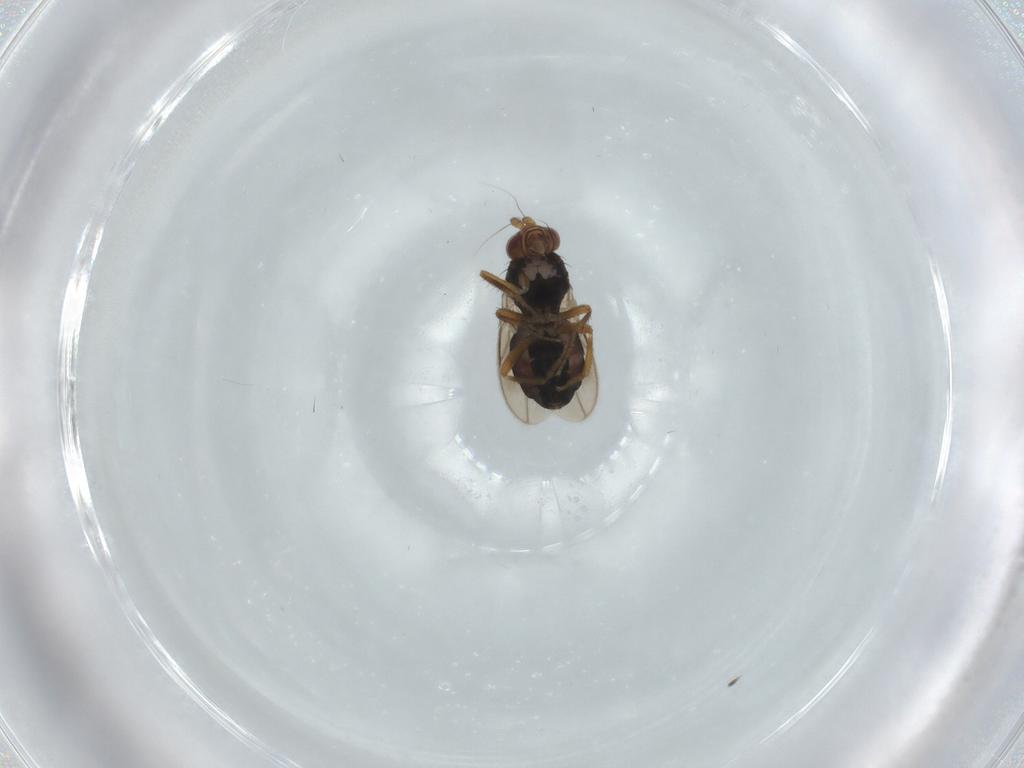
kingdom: Animalia
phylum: Arthropoda
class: Insecta
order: Diptera
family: Sphaeroceridae
